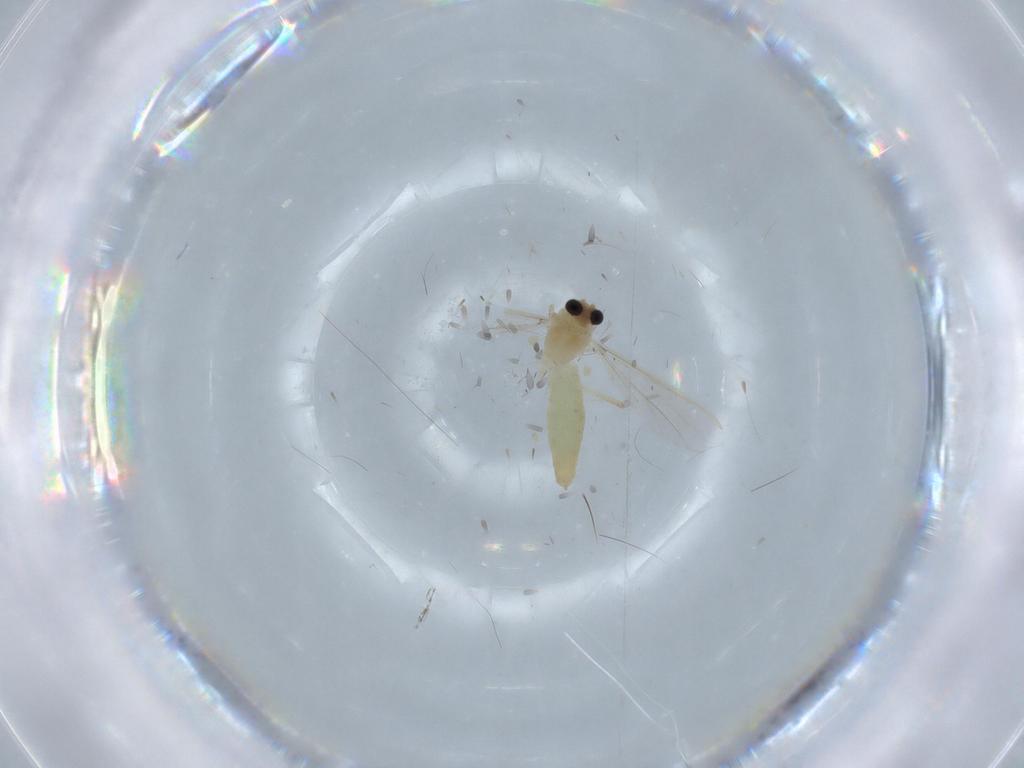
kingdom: Animalia
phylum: Arthropoda
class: Insecta
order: Diptera
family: Chironomidae
